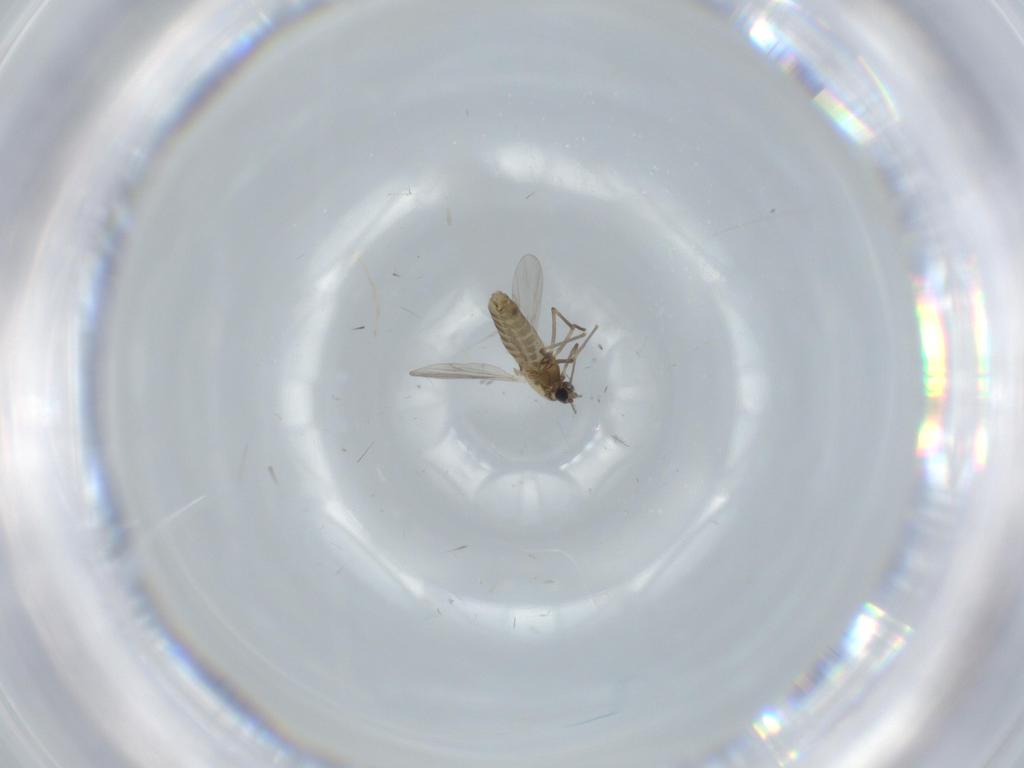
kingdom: Animalia
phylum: Arthropoda
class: Insecta
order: Diptera
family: Chironomidae
